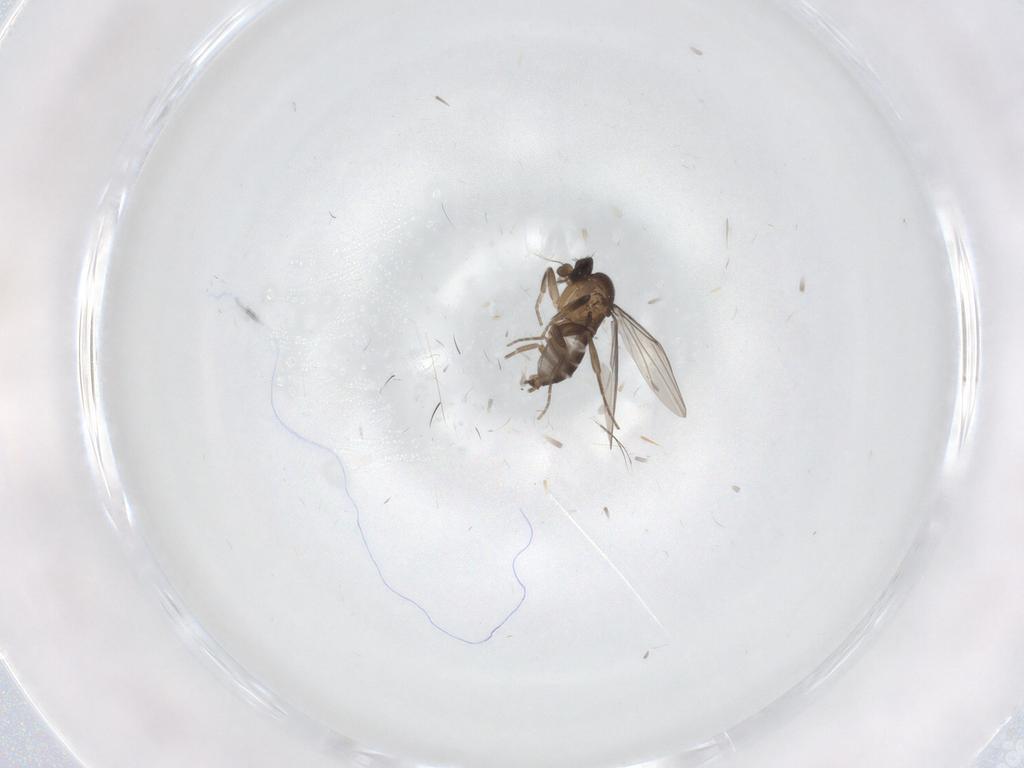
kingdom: Animalia
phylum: Arthropoda
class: Insecta
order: Diptera
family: Phoridae
